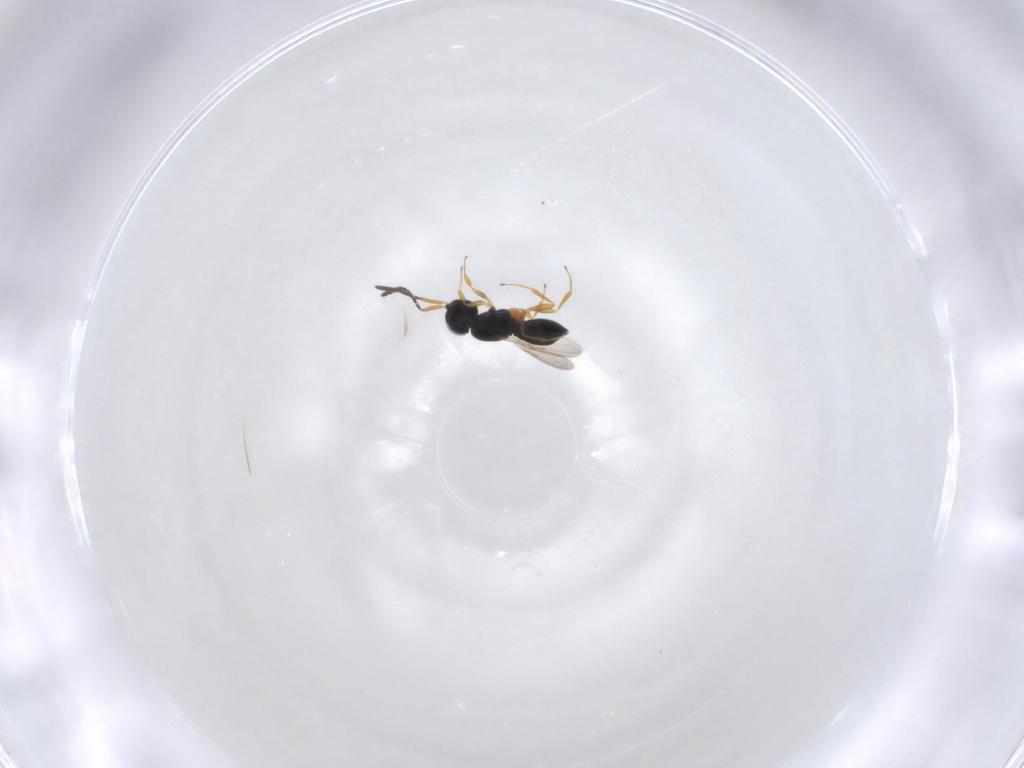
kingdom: Animalia
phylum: Arthropoda
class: Insecta
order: Hymenoptera
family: Scelionidae
